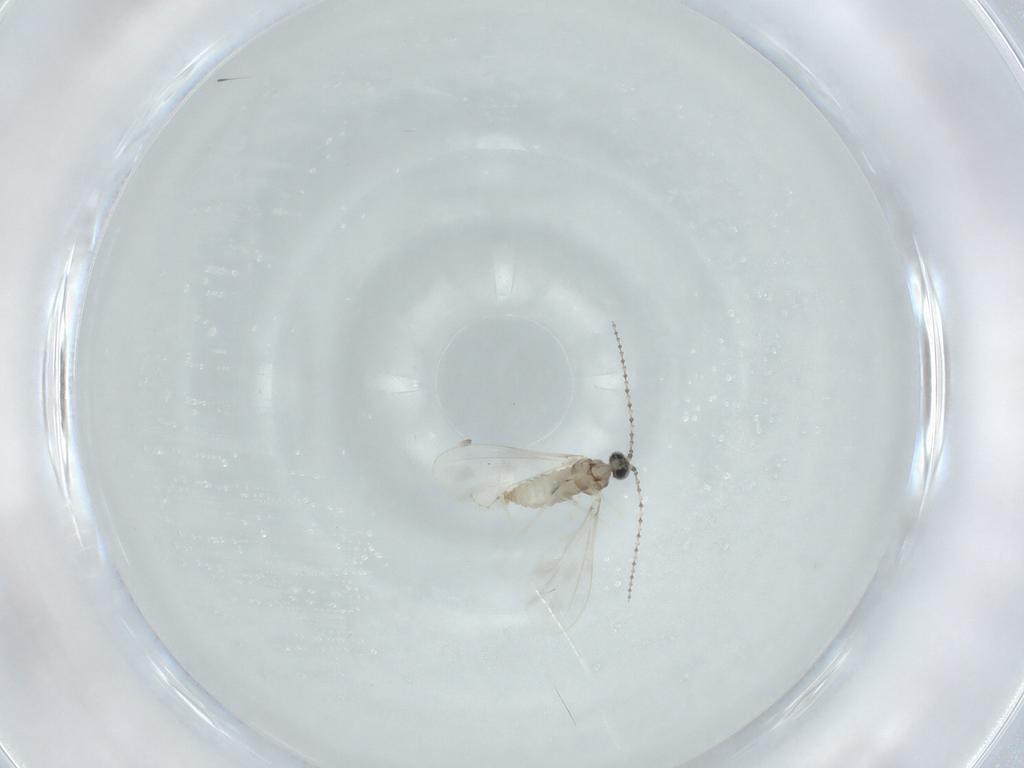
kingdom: Animalia
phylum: Arthropoda
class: Insecta
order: Diptera
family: Cecidomyiidae
